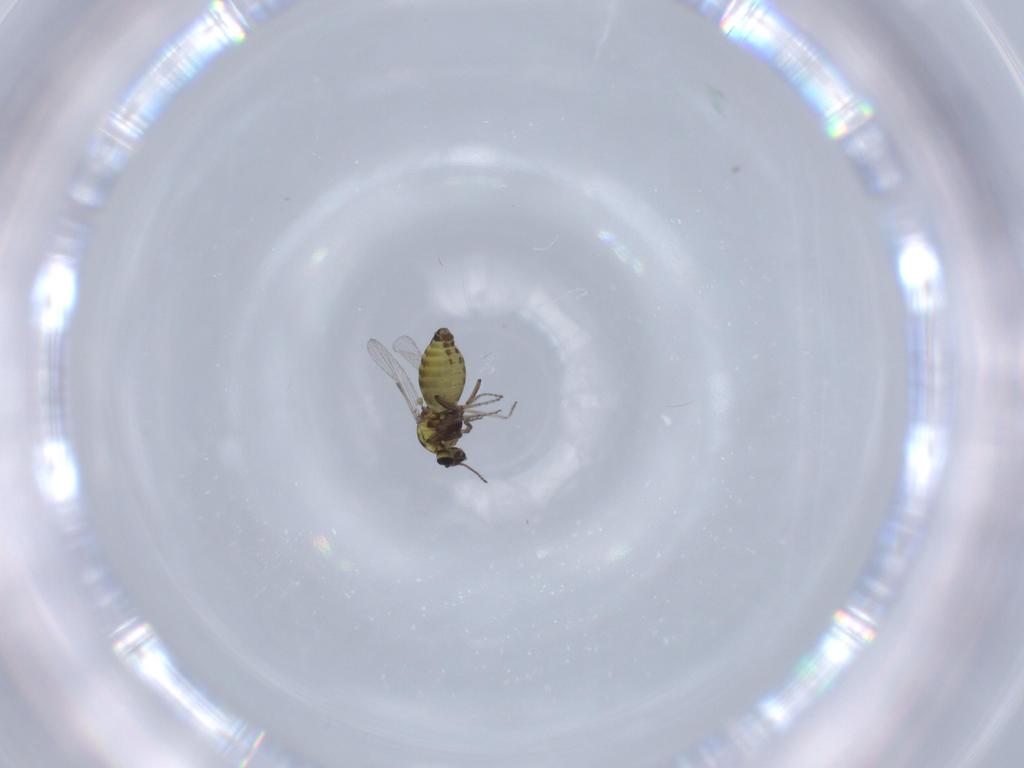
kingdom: Animalia
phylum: Arthropoda
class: Insecta
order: Diptera
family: Ceratopogonidae
